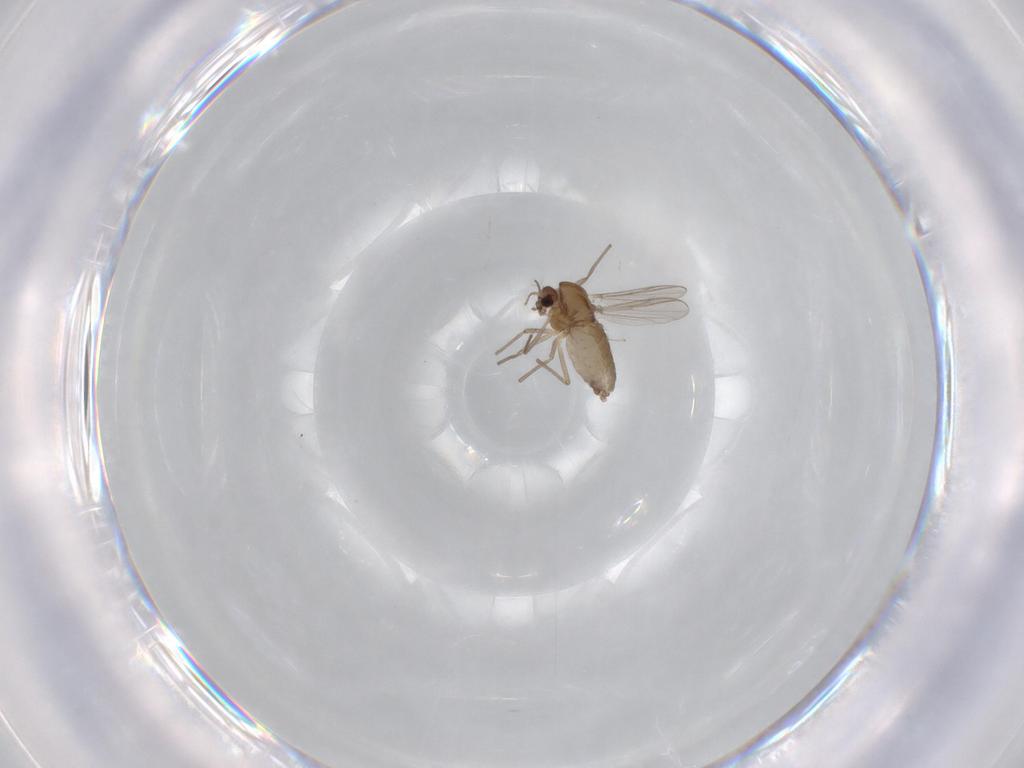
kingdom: Animalia
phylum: Arthropoda
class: Insecta
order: Diptera
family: Chironomidae
